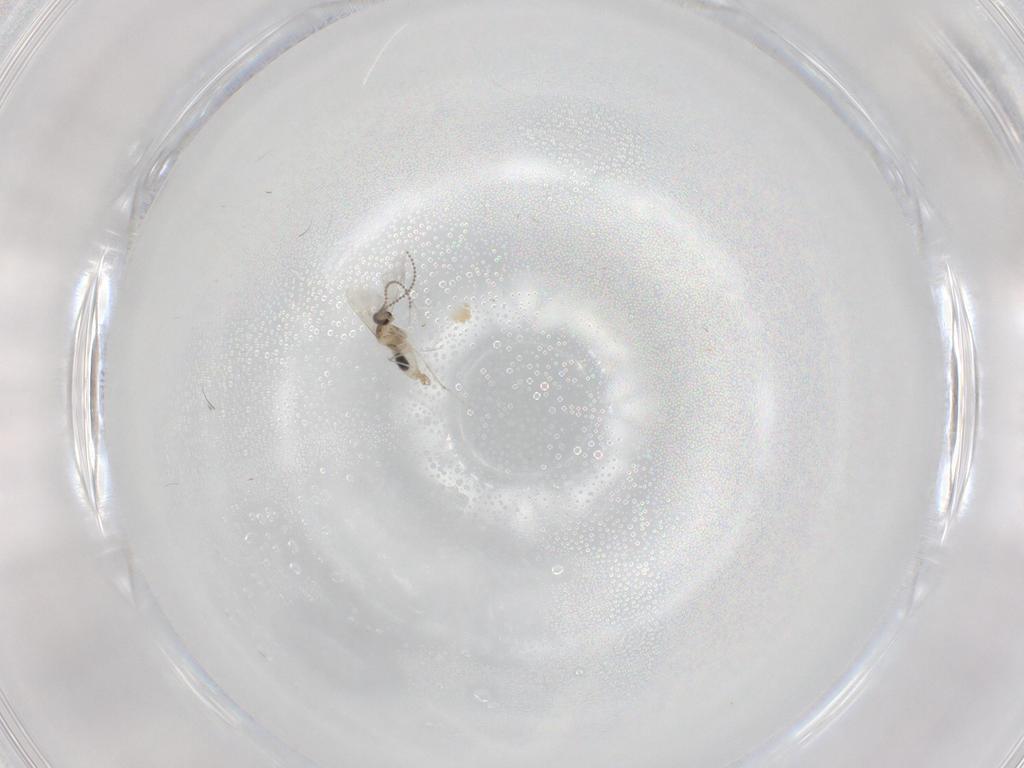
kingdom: Animalia
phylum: Arthropoda
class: Insecta
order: Diptera
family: Cecidomyiidae
